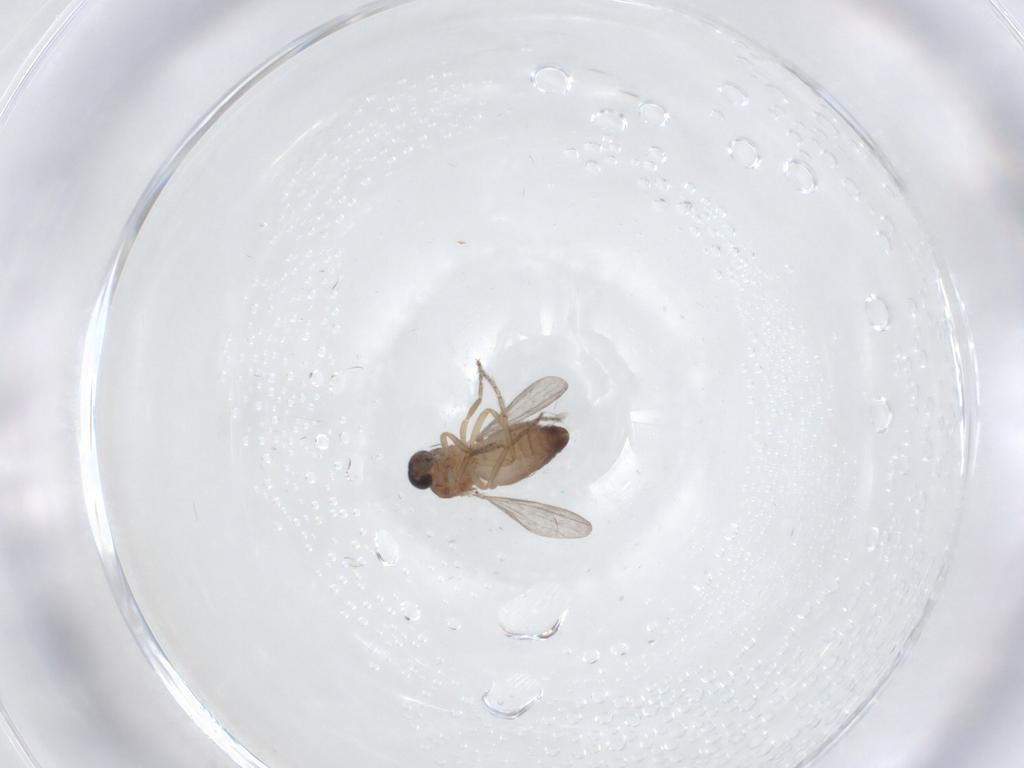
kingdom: Animalia
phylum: Arthropoda
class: Insecta
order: Diptera
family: Ceratopogonidae
